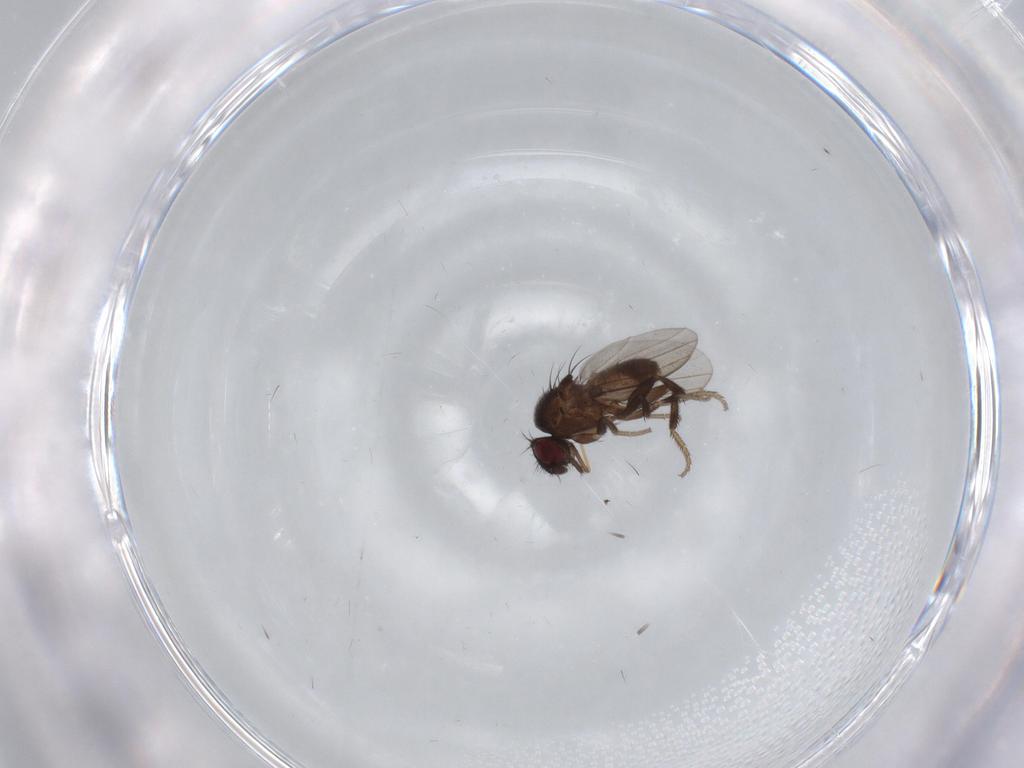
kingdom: Animalia
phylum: Arthropoda
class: Insecta
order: Diptera
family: Milichiidae
